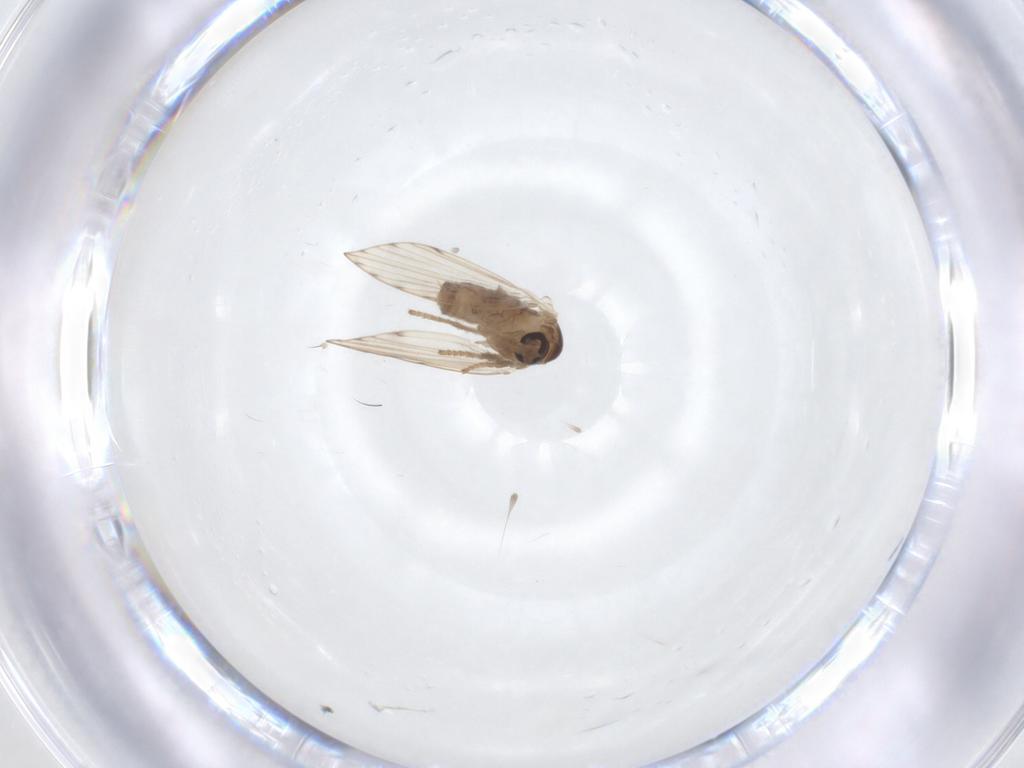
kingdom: Animalia
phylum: Arthropoda
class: Insecta
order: Diptera
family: Psychodidae
